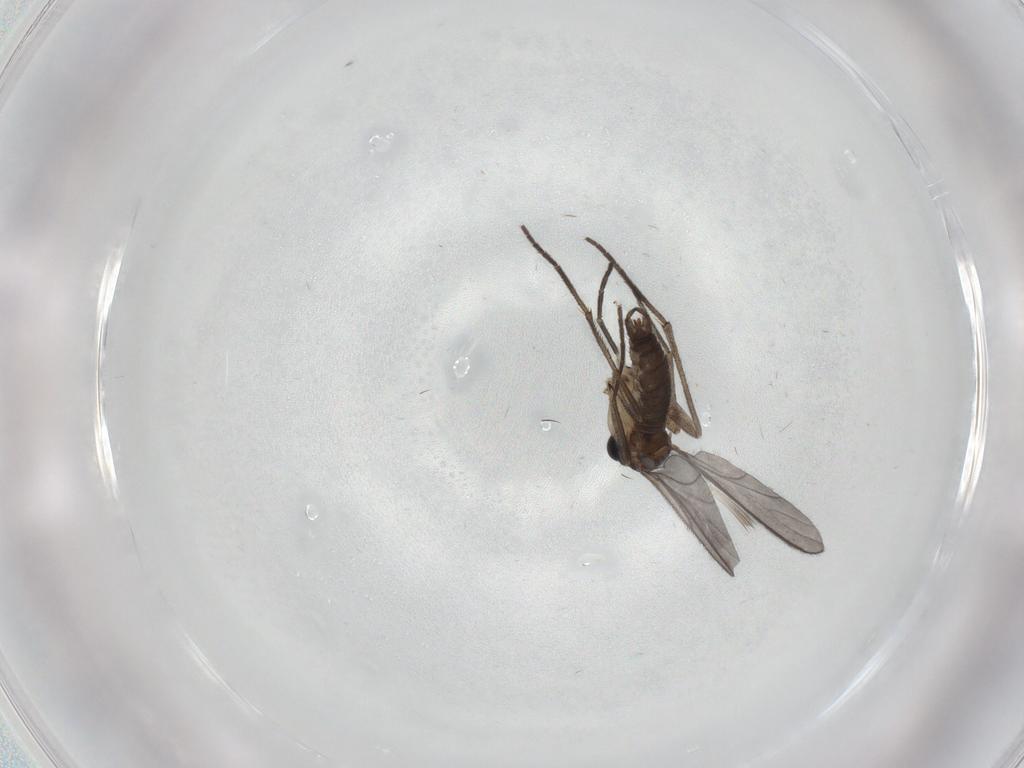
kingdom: Animalia
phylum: Arthropoda
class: Insecta
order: Diptera
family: Sciaridae
